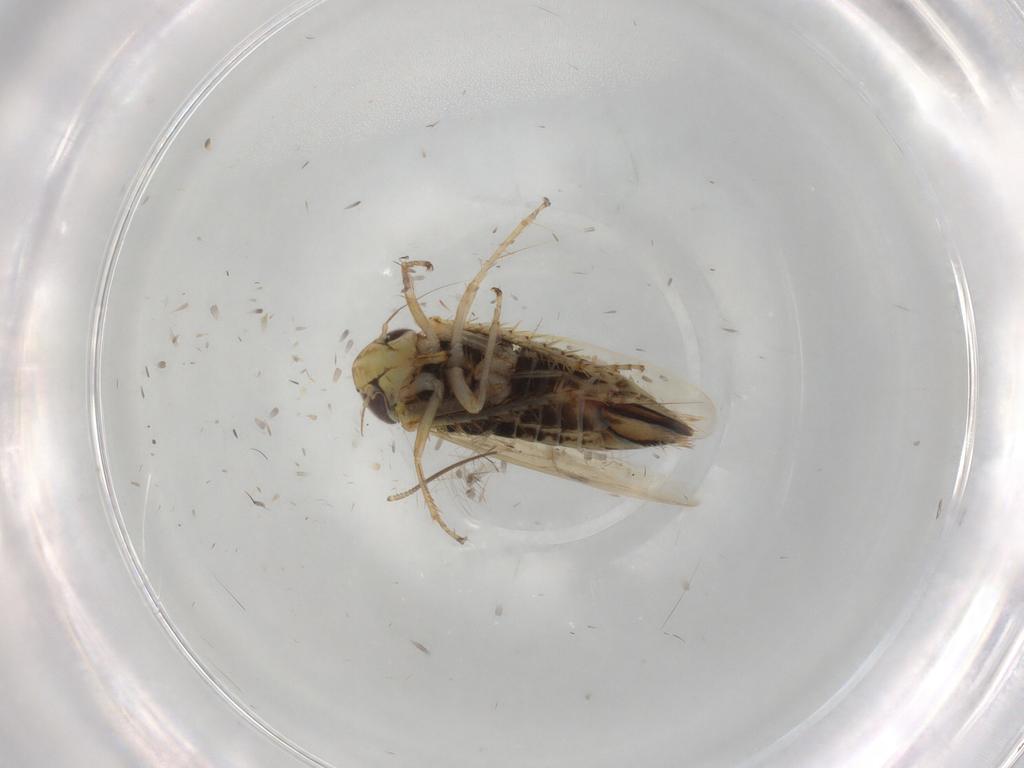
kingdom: Animalia
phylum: Arthropoda
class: Insecta
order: Hemiptera
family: Cicadellidae
